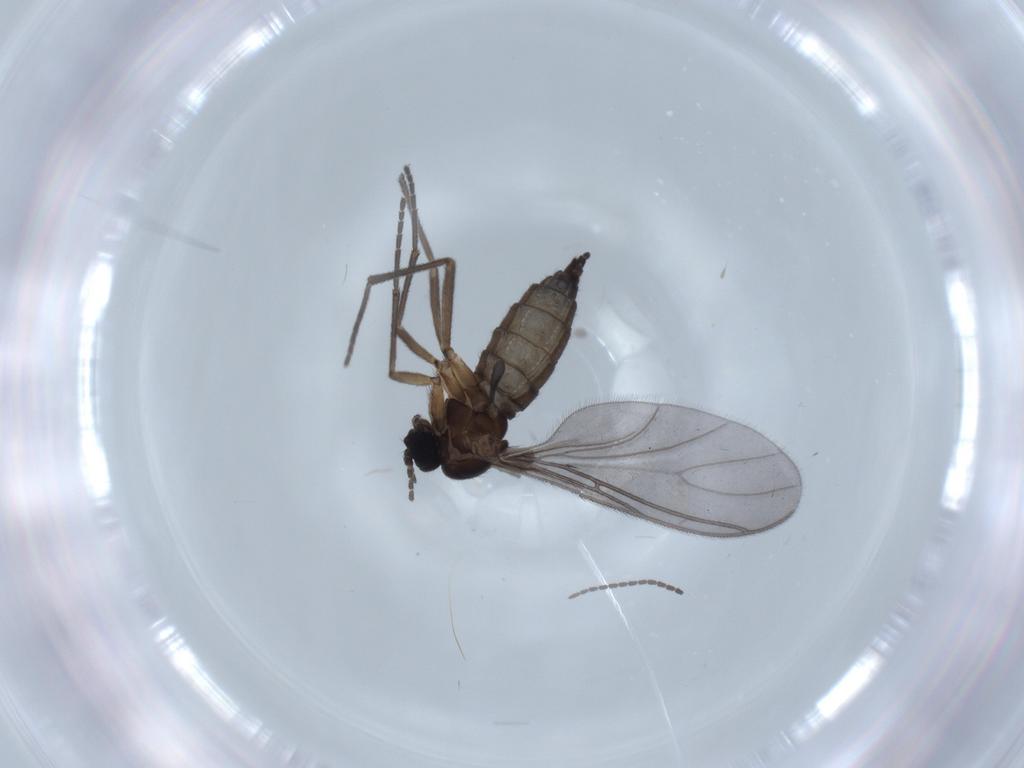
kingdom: Animalia
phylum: Arthropoda
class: Insecta
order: Diptera
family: Sciaridae
